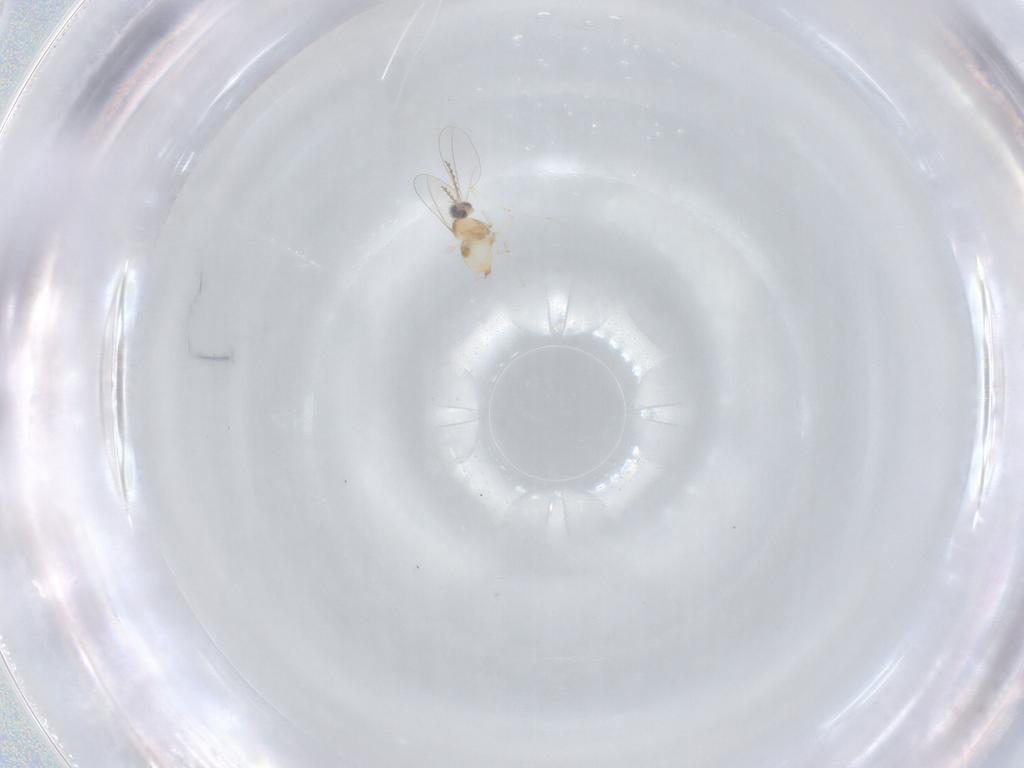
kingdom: Animalia
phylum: Arthropoda
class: Insecta
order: Diptera
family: Cecidomyiidae
